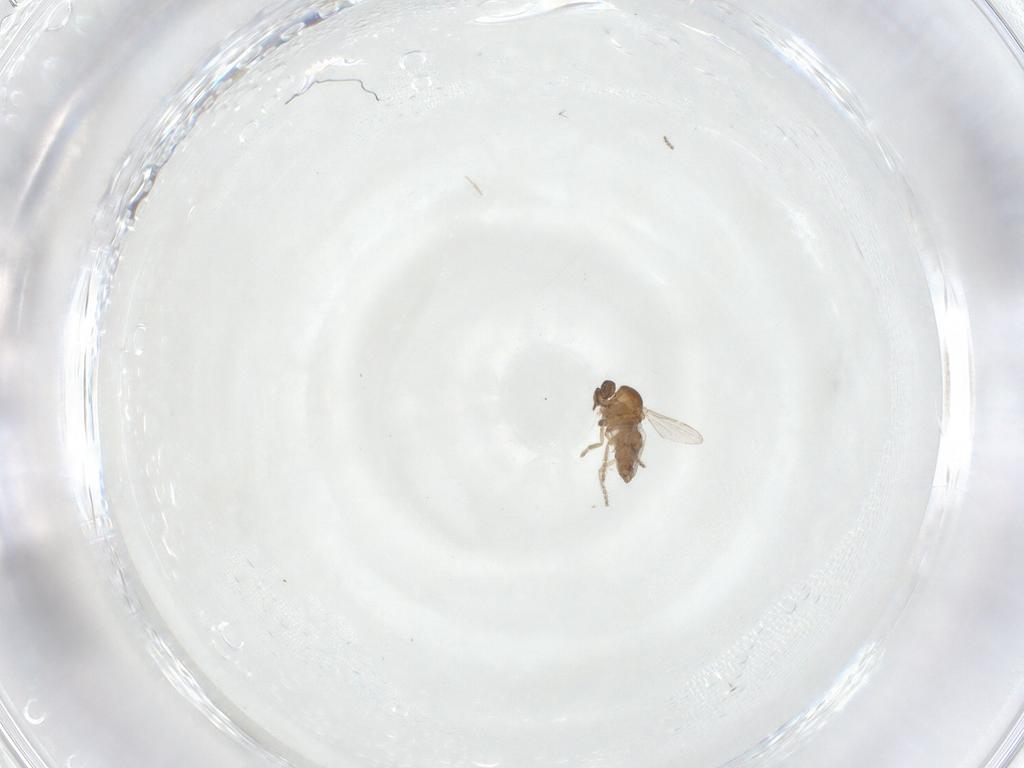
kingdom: Animalia
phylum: Arthropoda
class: Insecta
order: Diptera
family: Ceratopogonidae
